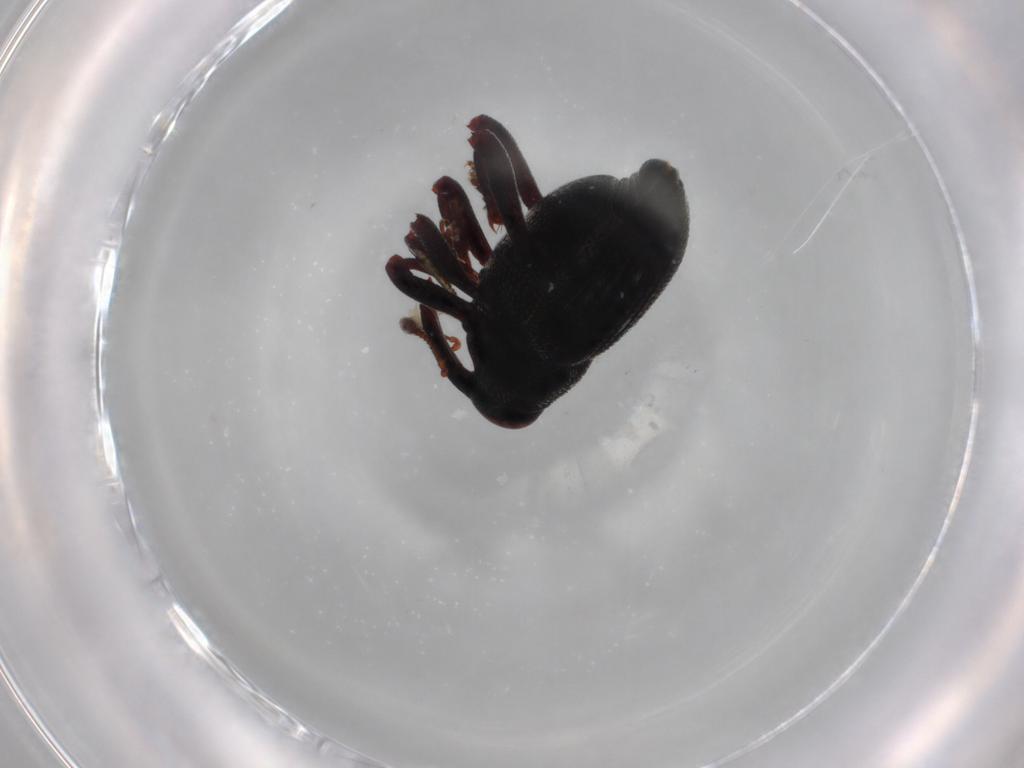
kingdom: Animalia
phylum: Arthropoda
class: Insecta
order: Coleoptera
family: Curculionidae
